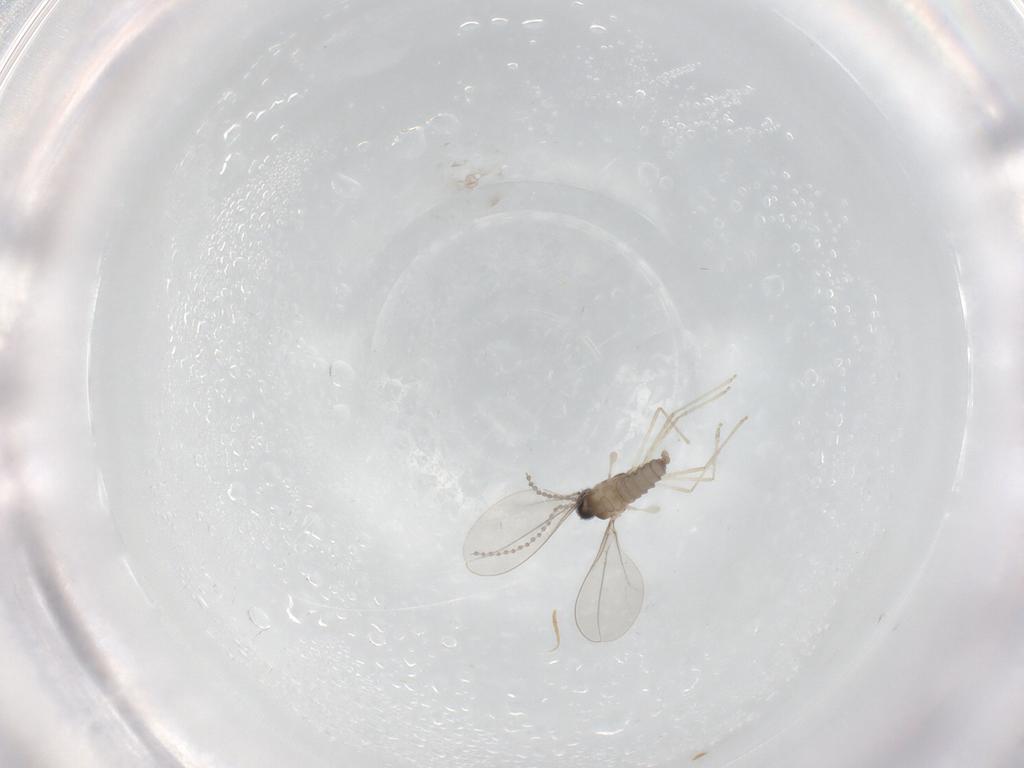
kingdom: Animalia
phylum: Arthropoda
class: Insecta
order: Diptera
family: Cecidomyiidae
